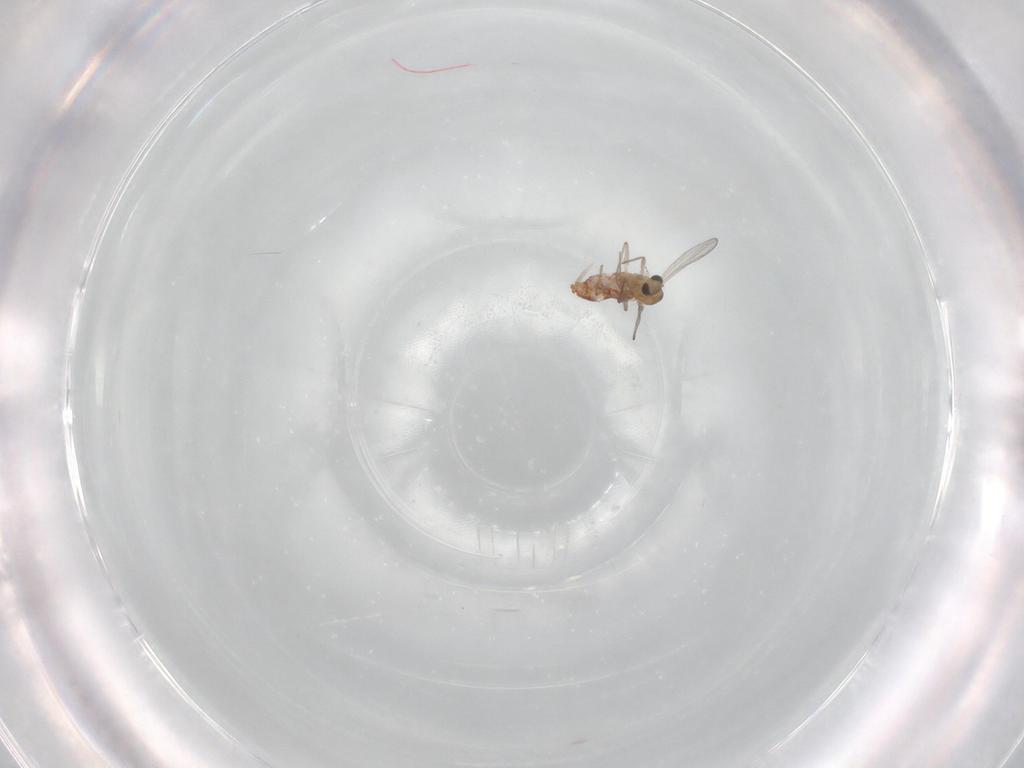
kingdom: Animalia
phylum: Arthropoda
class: Insecta
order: Diptera
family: Chironomidae
